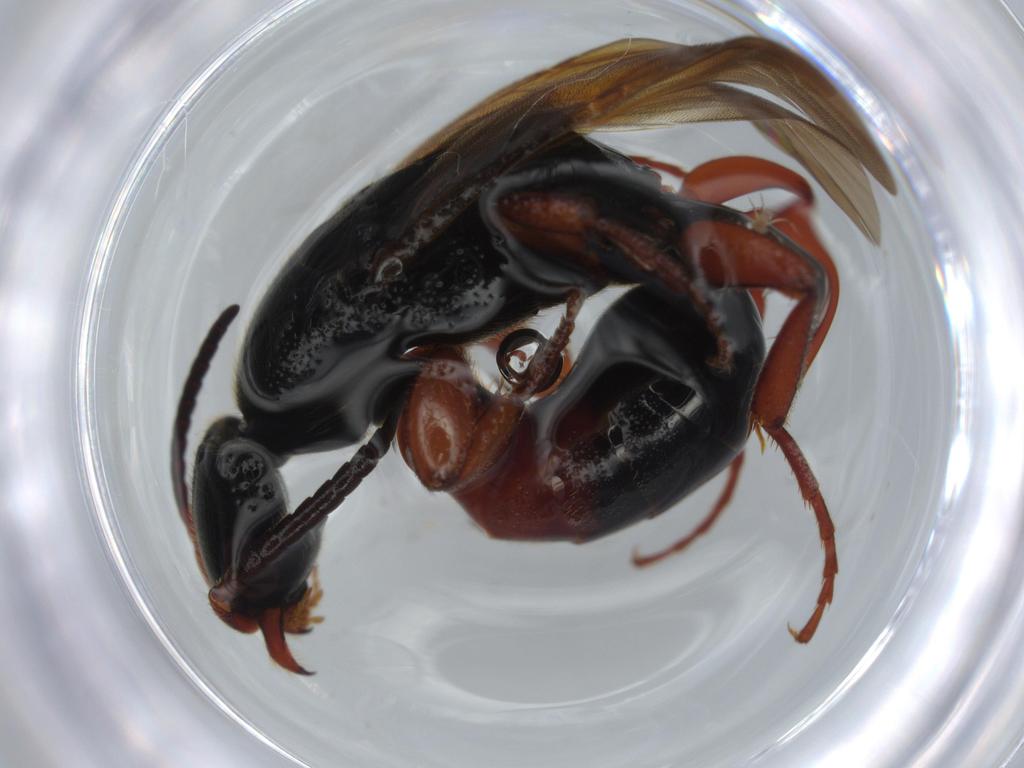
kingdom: Animalia
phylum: Arthropoda
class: Insecta
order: Hymenoptera
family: Bethylidae
